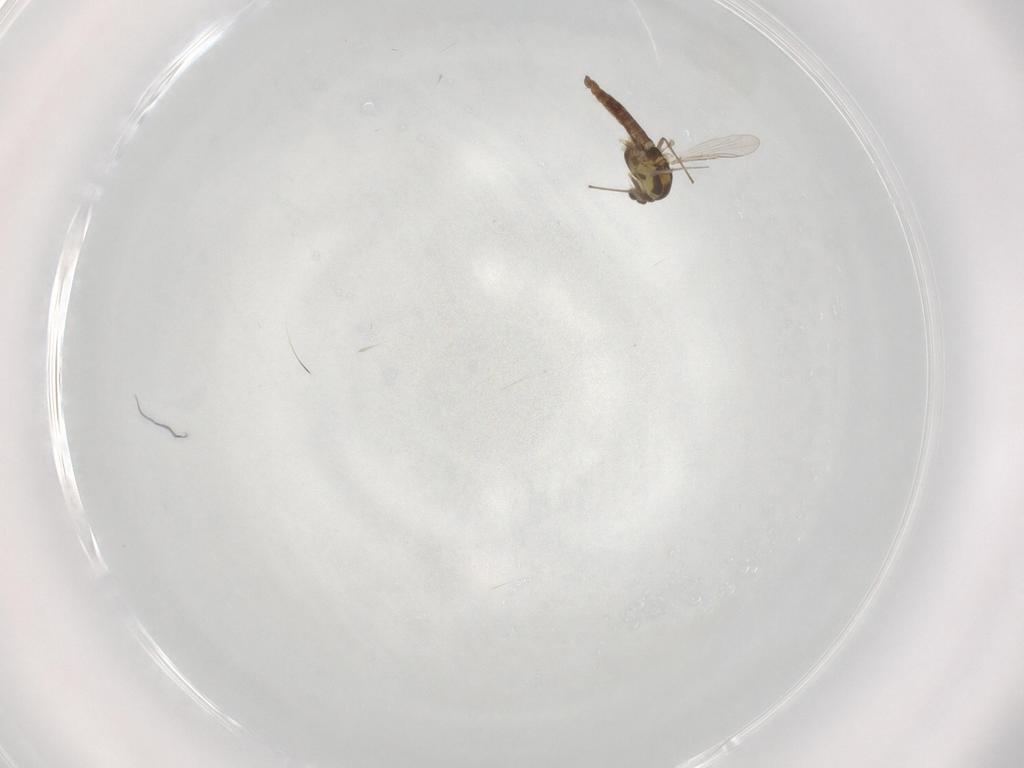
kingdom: Animalia
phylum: Arthropoda
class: Insecta
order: Diptera
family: Chironomidae
